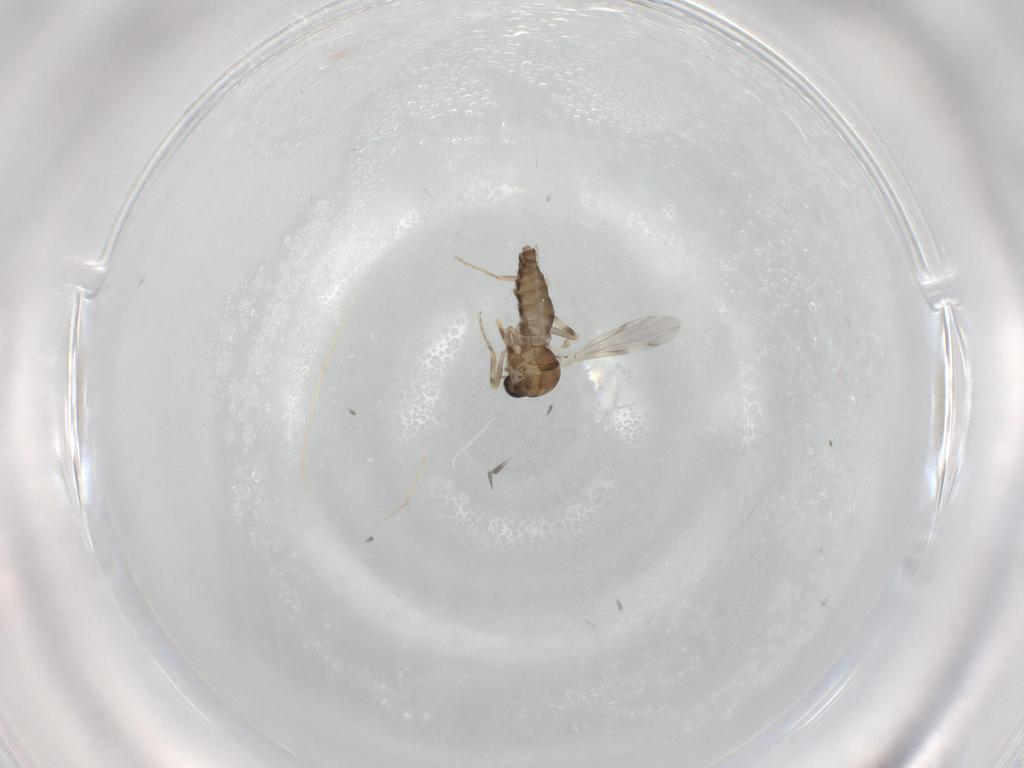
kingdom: Animalia
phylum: Arthropoda
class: Insecta
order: Diptera
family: Ceratopogonidae
